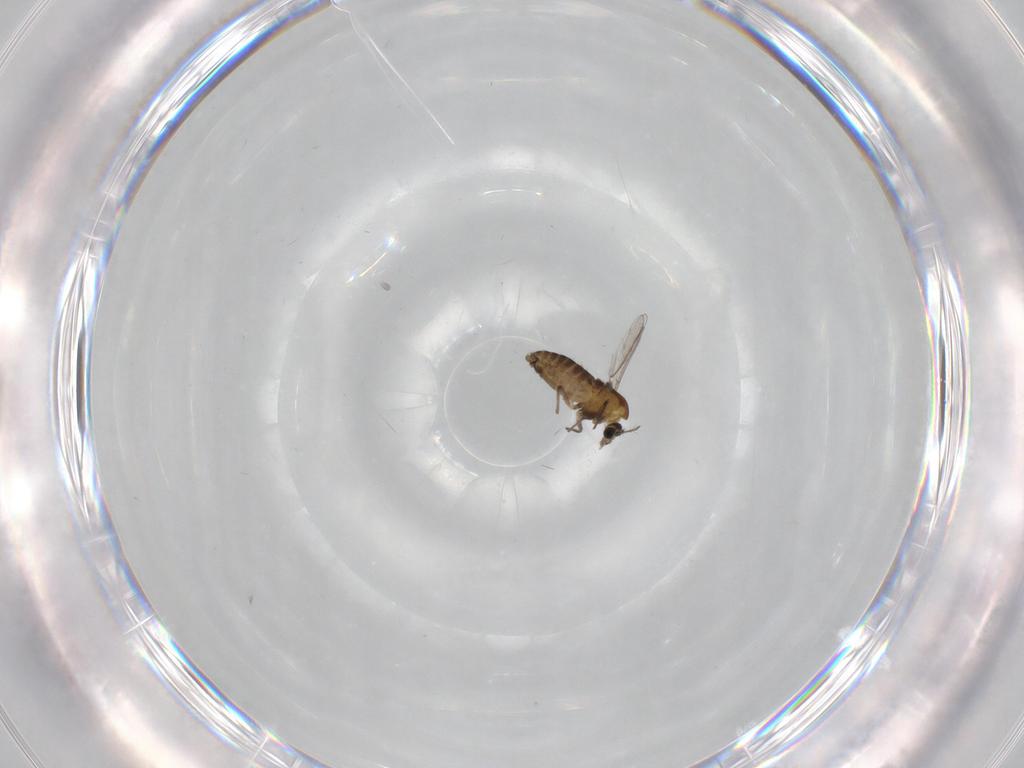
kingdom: Animalia
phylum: Arthropoda
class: Insecta
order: Diptera
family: Chironomidae
